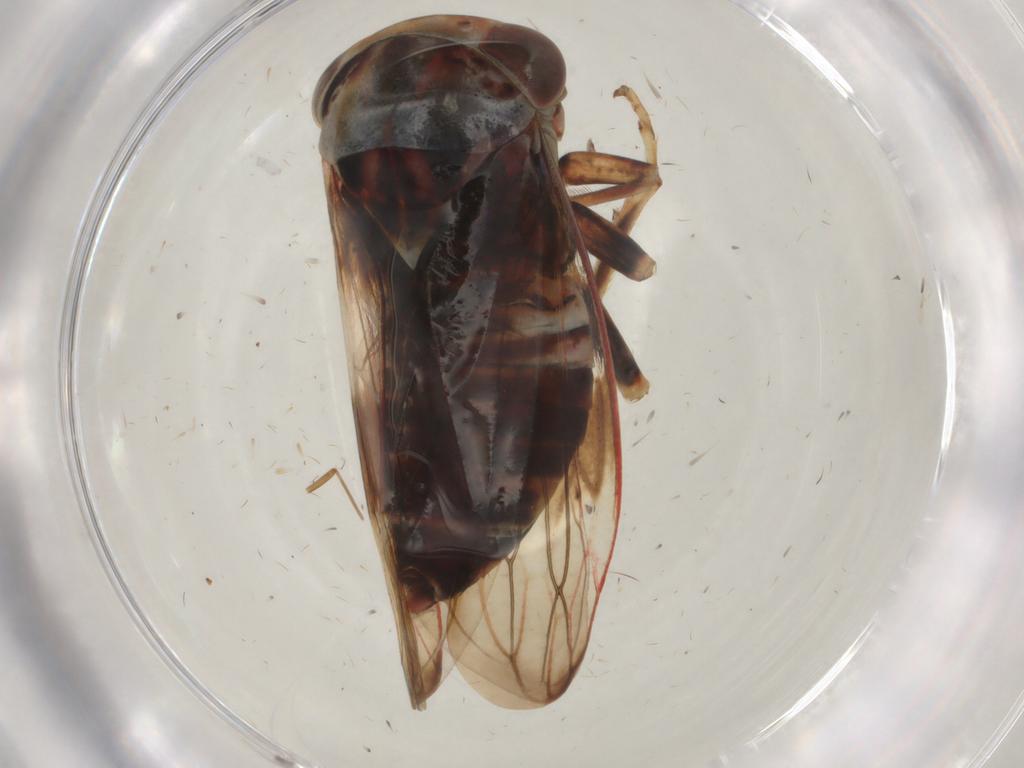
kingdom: Animalia
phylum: Arthropoda
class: Insecta
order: Hemiptera
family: Aphrophoridae
